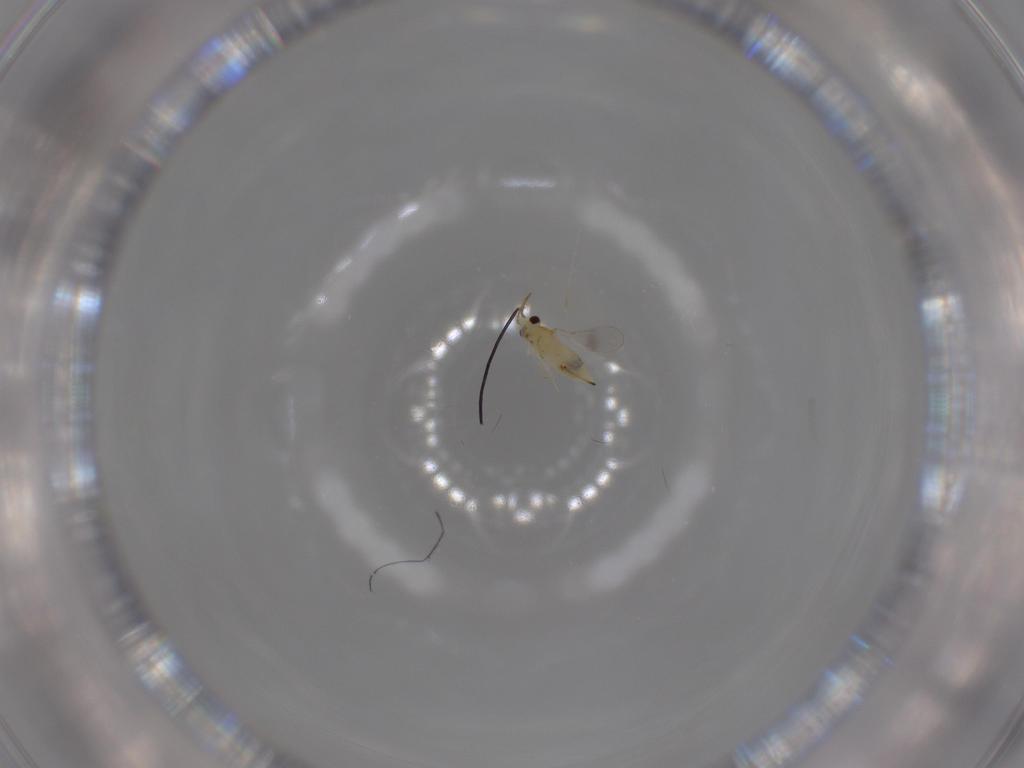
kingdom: Animalia
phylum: Arthropoda
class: Insecta
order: Hymenoptera
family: Aphelinidae
